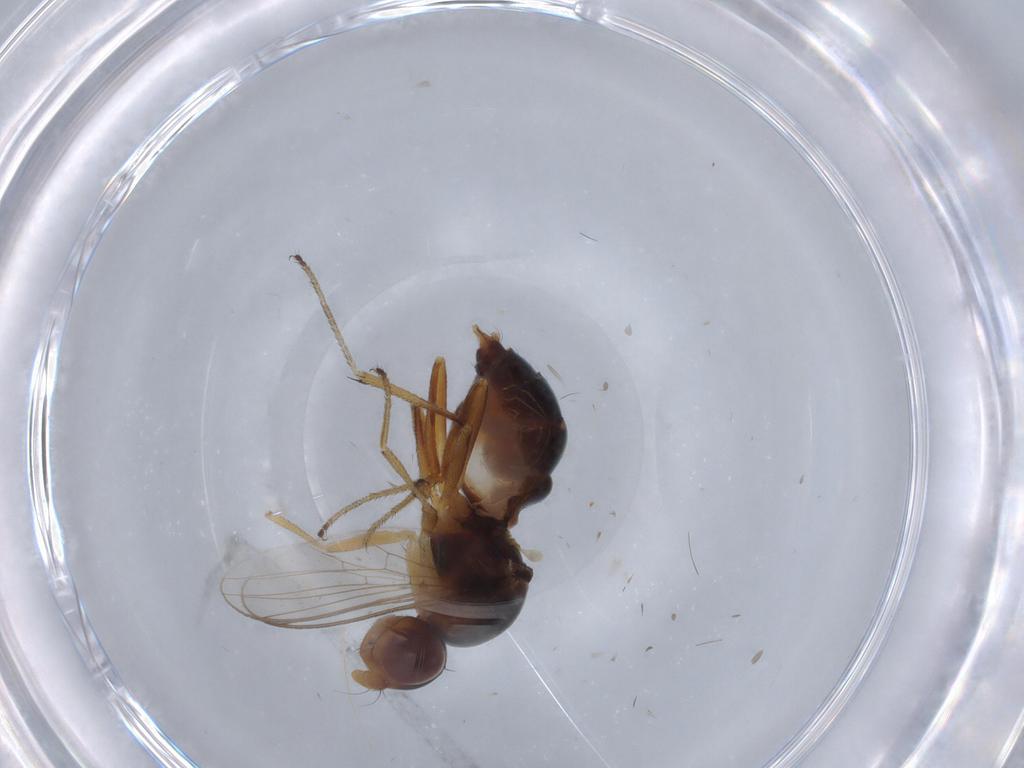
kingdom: Animalia
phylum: Arthropoda
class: Insecta
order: Diptera
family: Sepsidae
